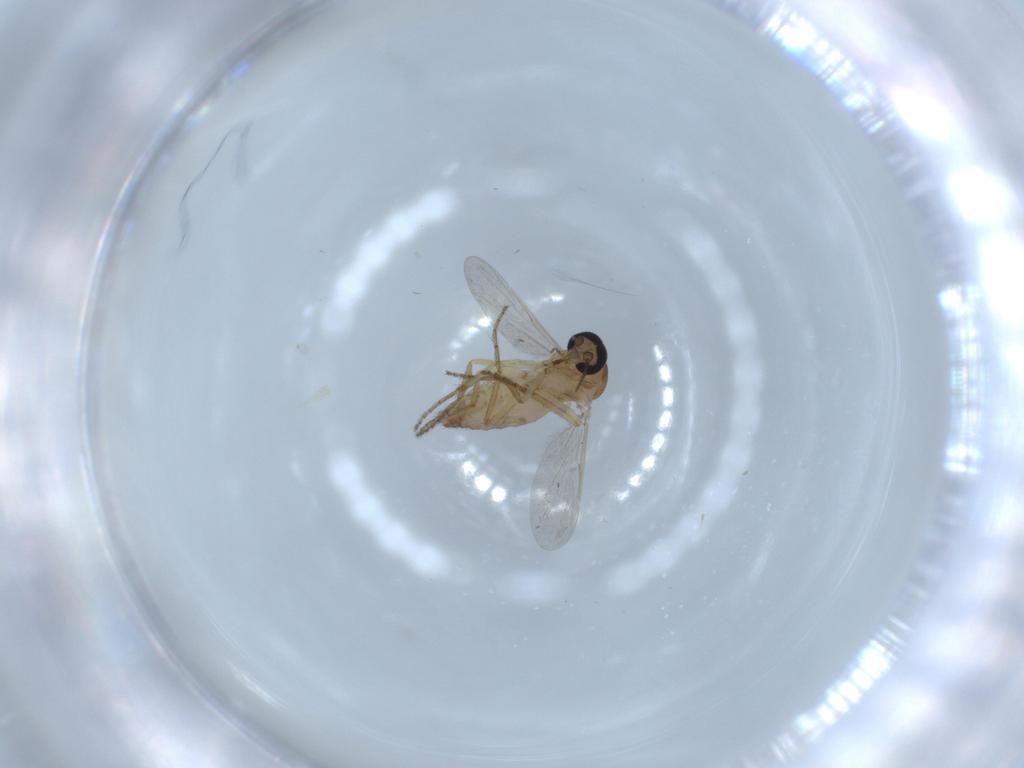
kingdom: Animalia
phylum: Arthropoda
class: Insecta
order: Diptera
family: Ceratopogonidae
